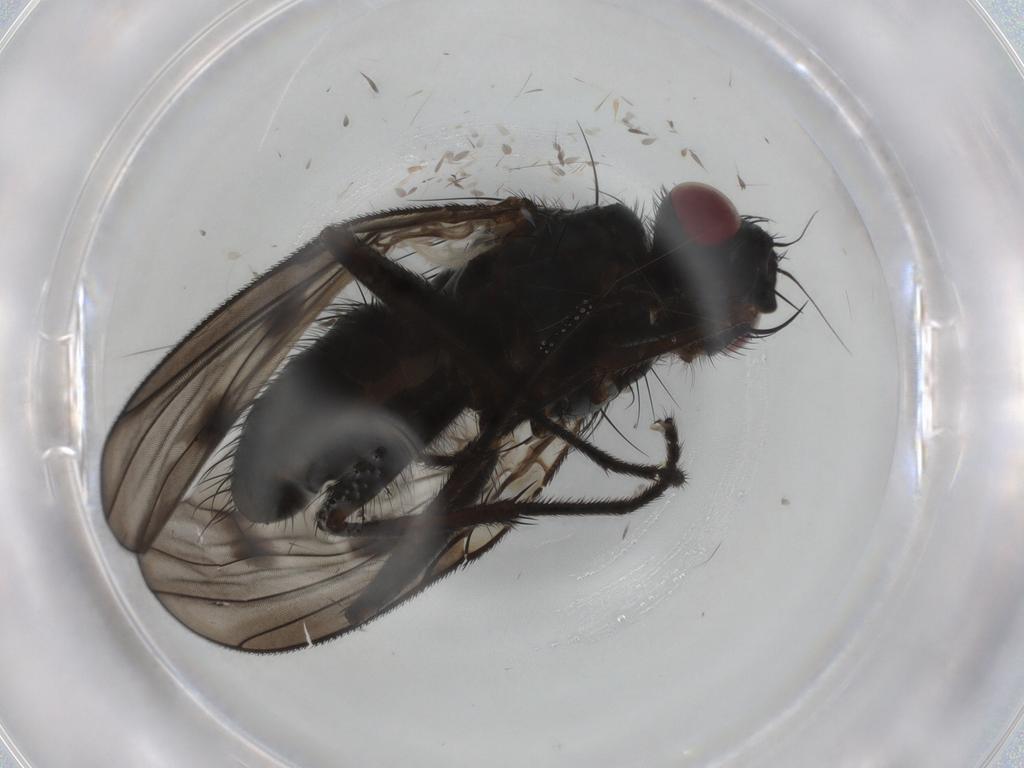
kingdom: Animalia
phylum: Arthropoda
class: Insecta
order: Diptera
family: Muscidae
